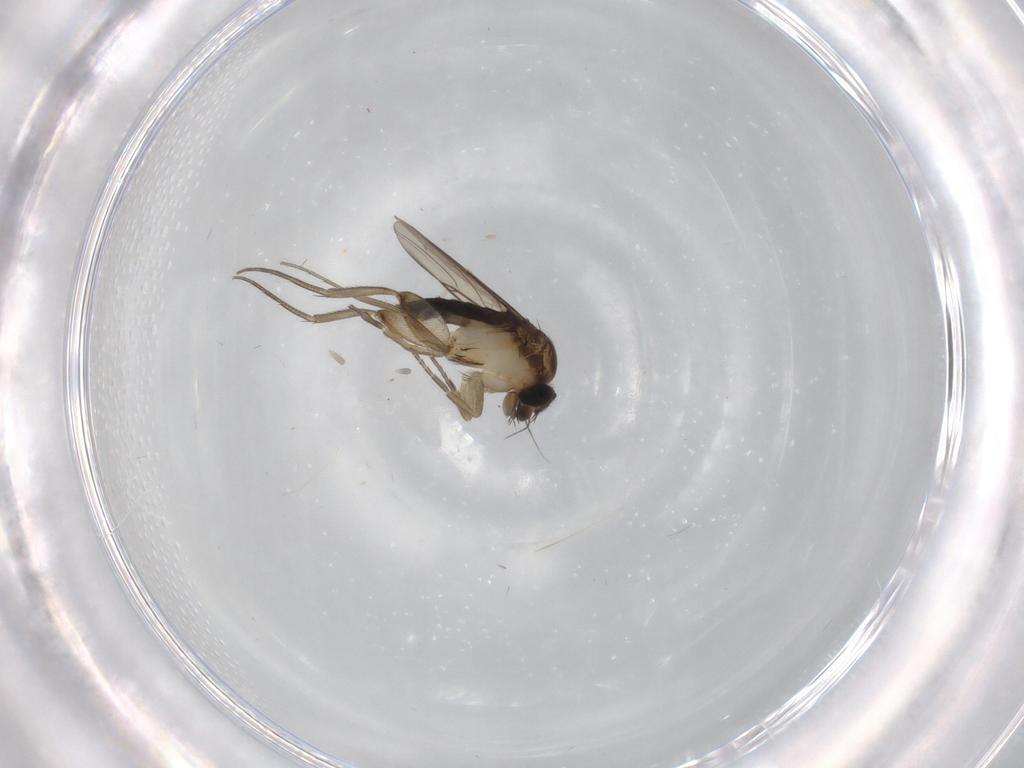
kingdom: Animalia
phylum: Arthropoda
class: Insecta
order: Diptera
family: Phoridae
